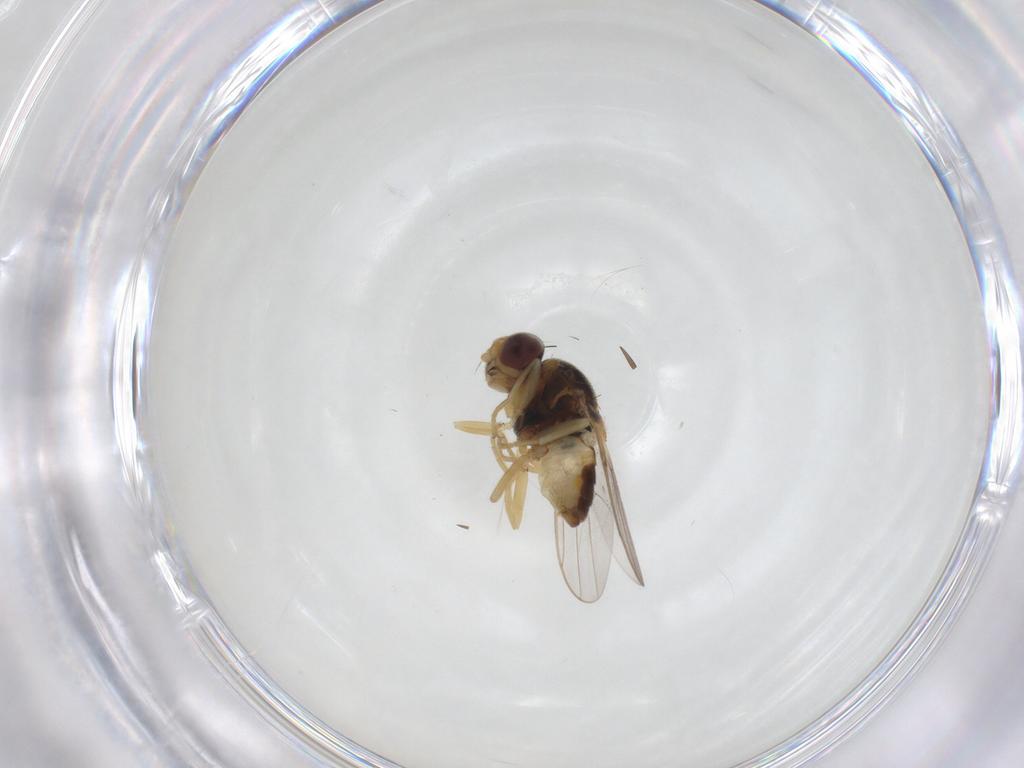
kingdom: Animalia
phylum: Arthropoda
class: Insecta
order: Diptera
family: Chloropidae
